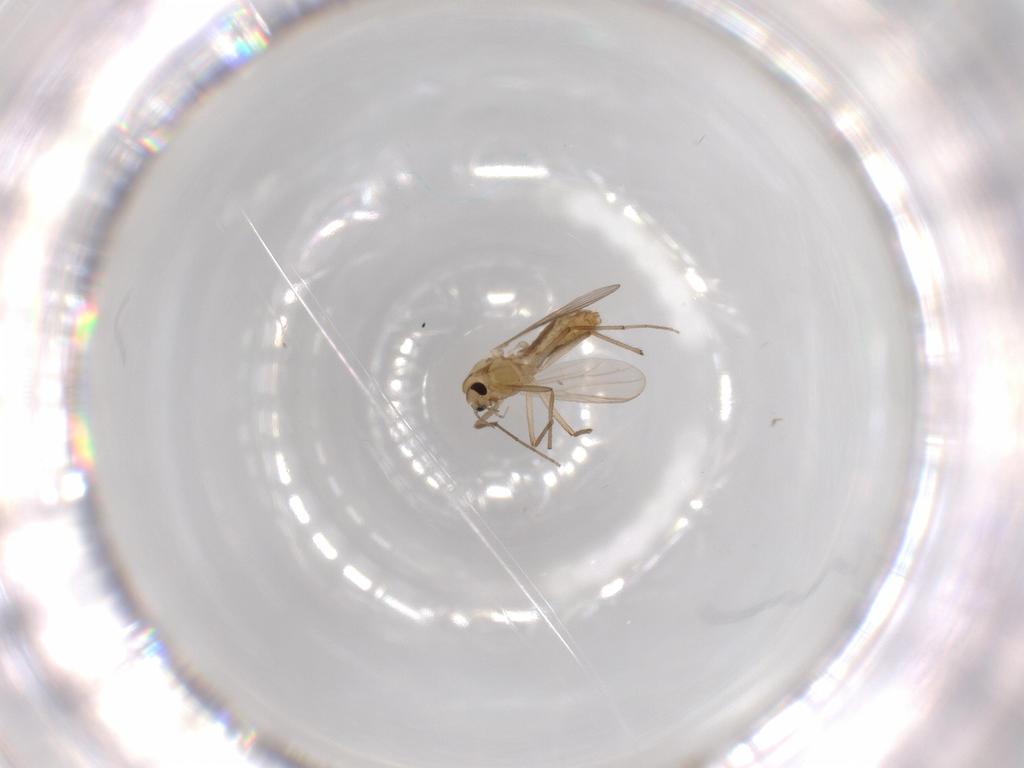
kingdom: Animalia
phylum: Arthropoda
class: Insecta
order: Diptera
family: Chironomidae
